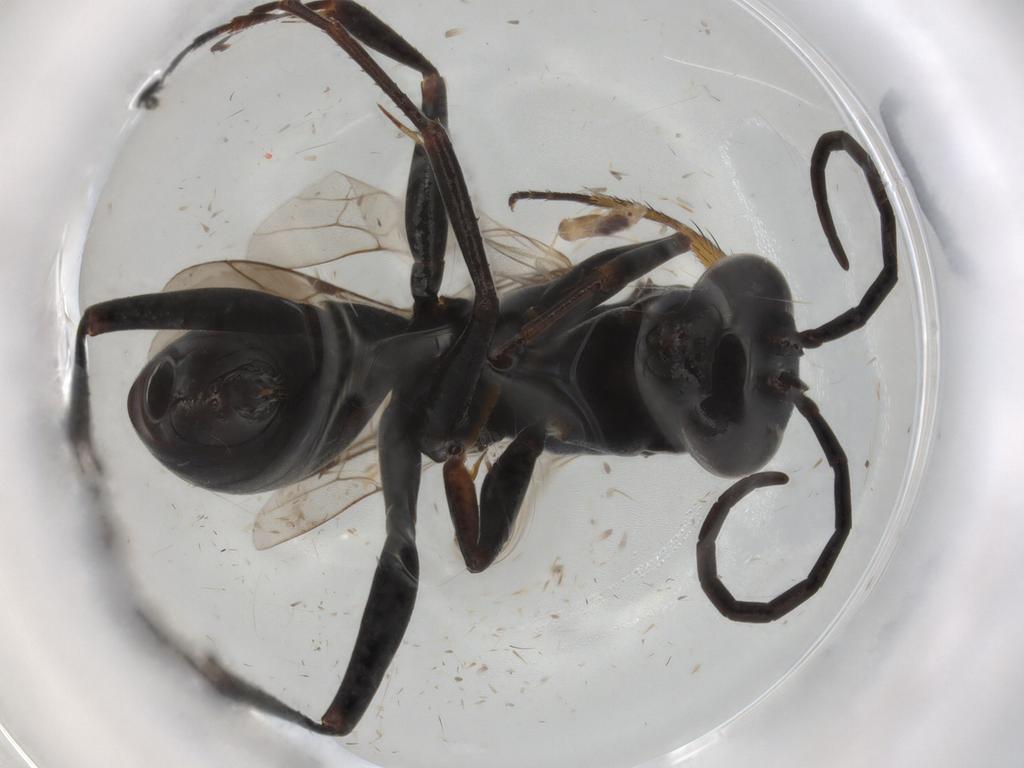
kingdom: Animalia
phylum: Arthropoda
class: Insecta
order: Hymenoptera
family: Pompilidae
